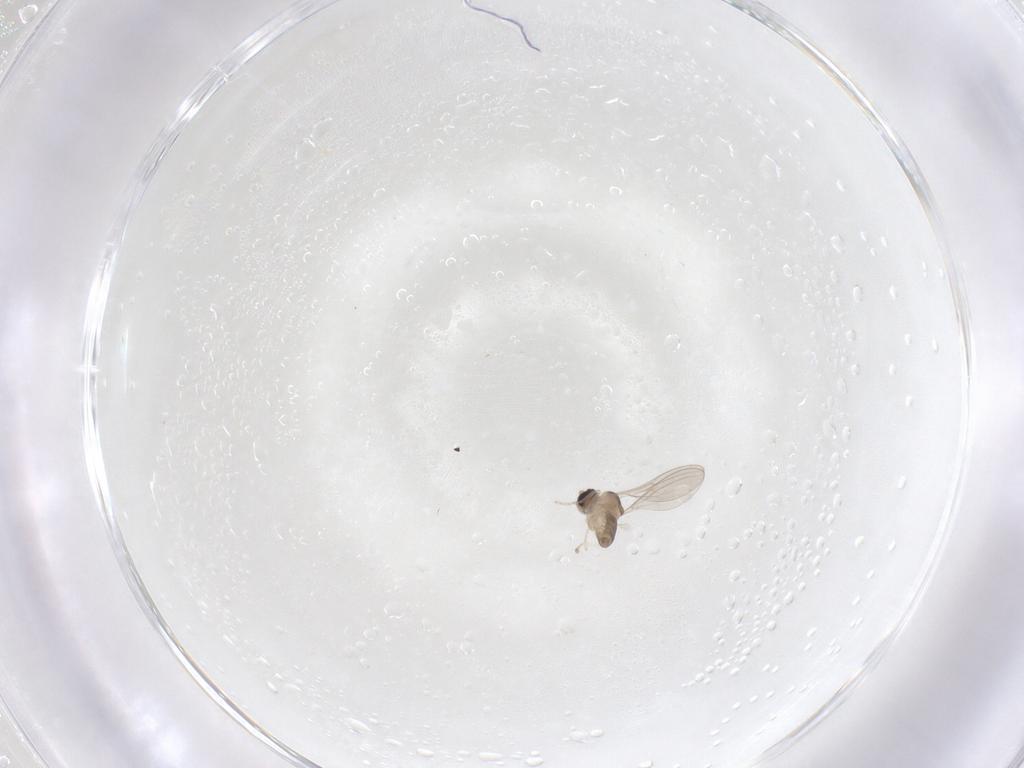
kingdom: Animalia
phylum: Arthropoda
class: Insecta
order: Diptera
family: Cecidomyiidae
